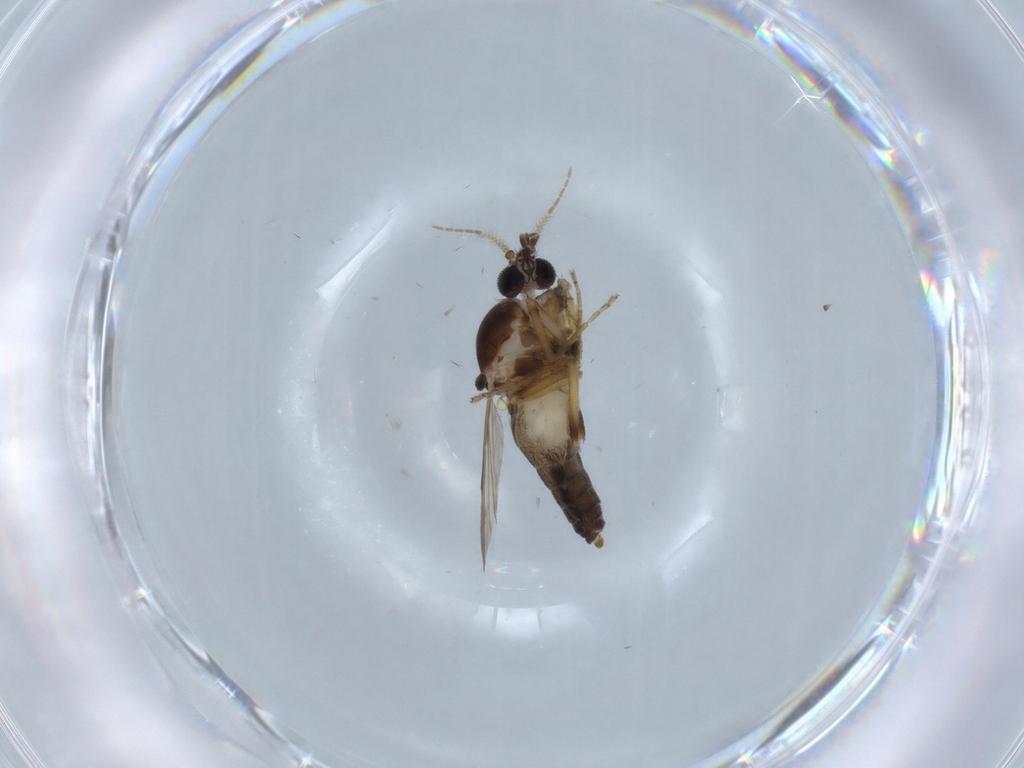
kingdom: Animalia
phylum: Arthropoda
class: Insecta
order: Diptera
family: Ceratopogonidae
